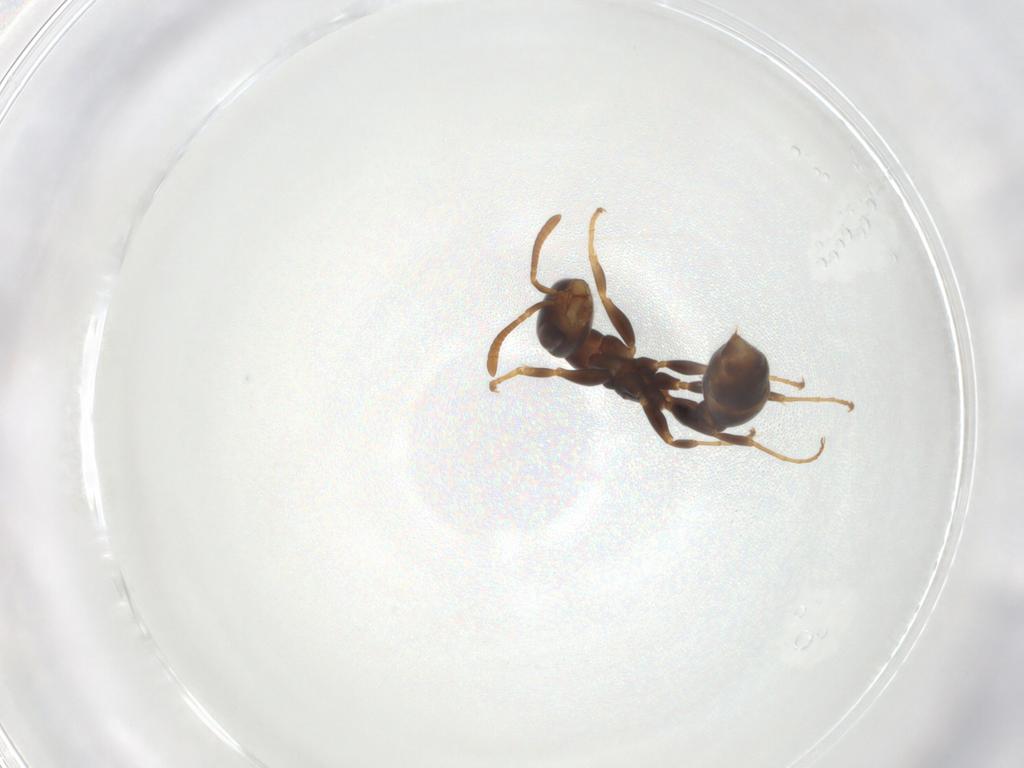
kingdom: Animalia
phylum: Arthropoda
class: Insecta
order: Hymenoptera
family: Formicidae
